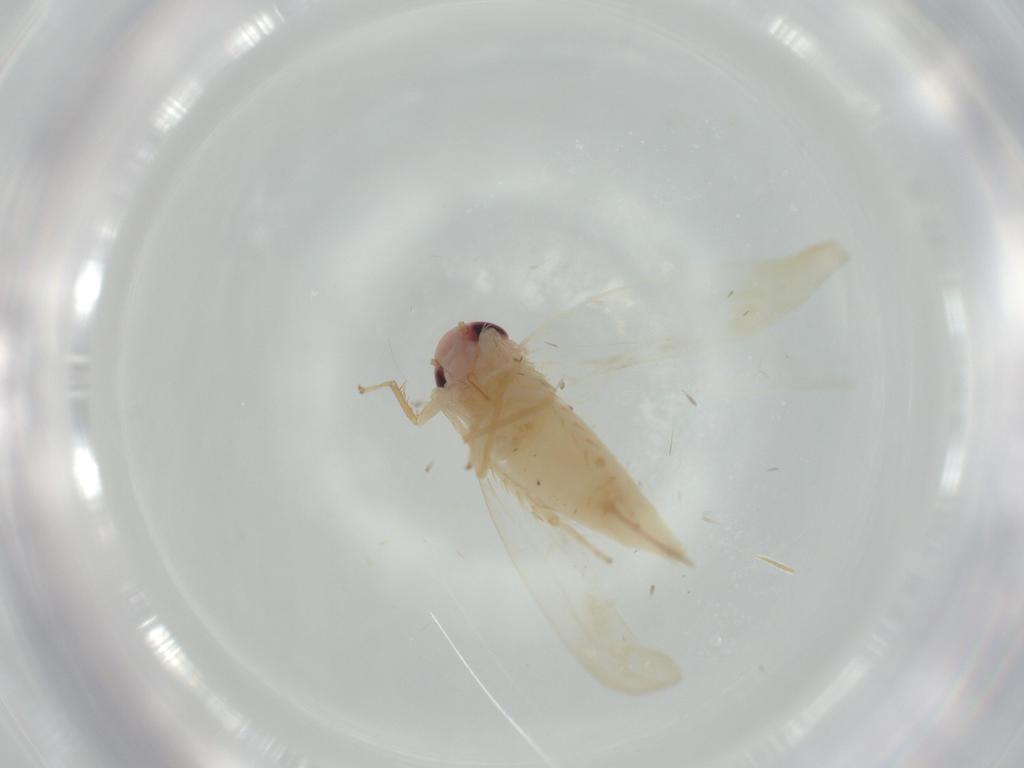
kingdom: Animalia
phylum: Arthropoda
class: Insecta
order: Hemiptera
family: Cicadellidae
